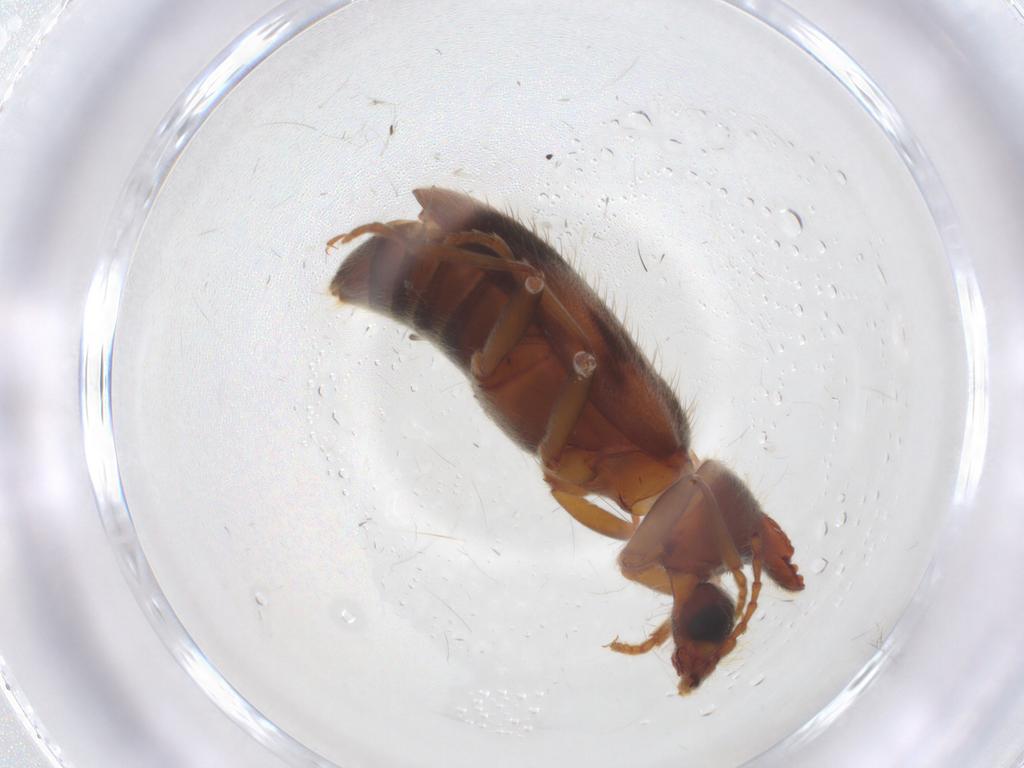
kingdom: Animalia
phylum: Arthropoda
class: Insecta
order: Coleoptera
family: Anthicidae
